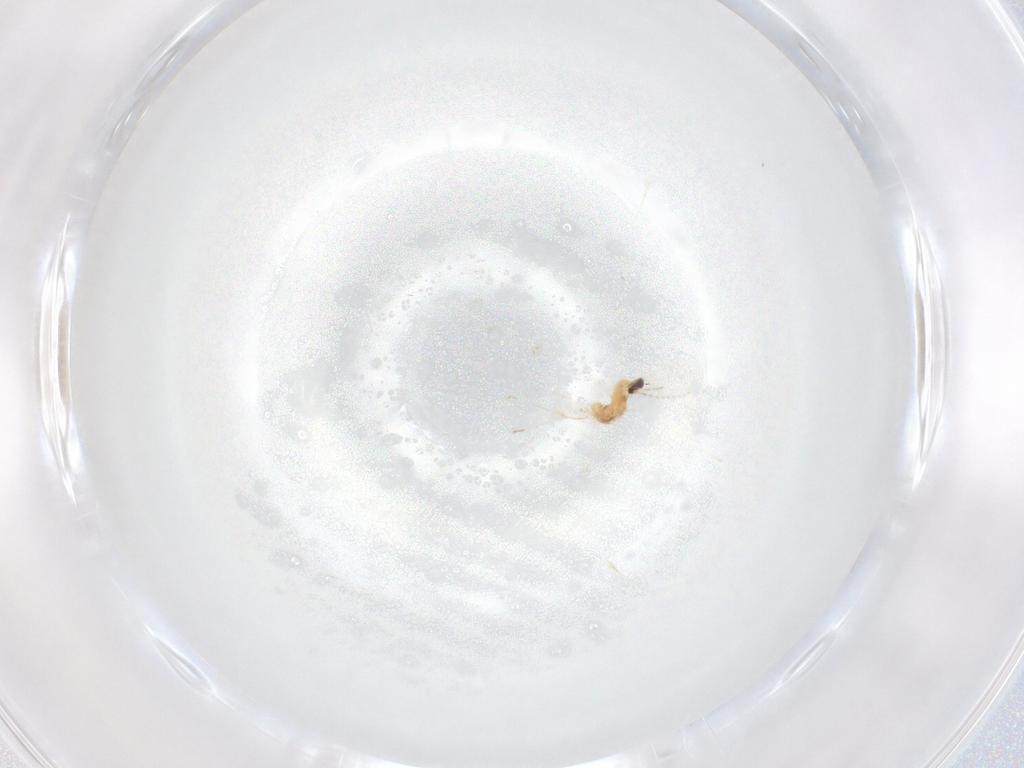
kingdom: Animalia
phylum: Arthropoda
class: Insecta
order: Diptera
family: Cecidomyiidae
